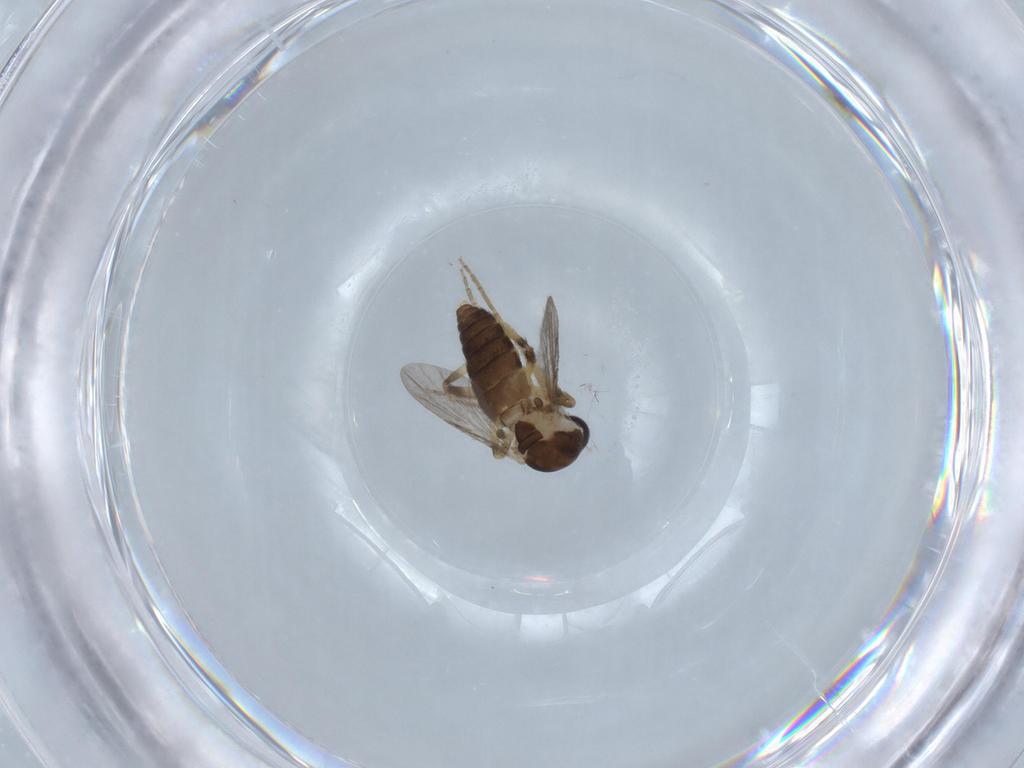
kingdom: Animalia
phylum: Arthropoda
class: Insecta
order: Diptera
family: Ceratopogonidae
